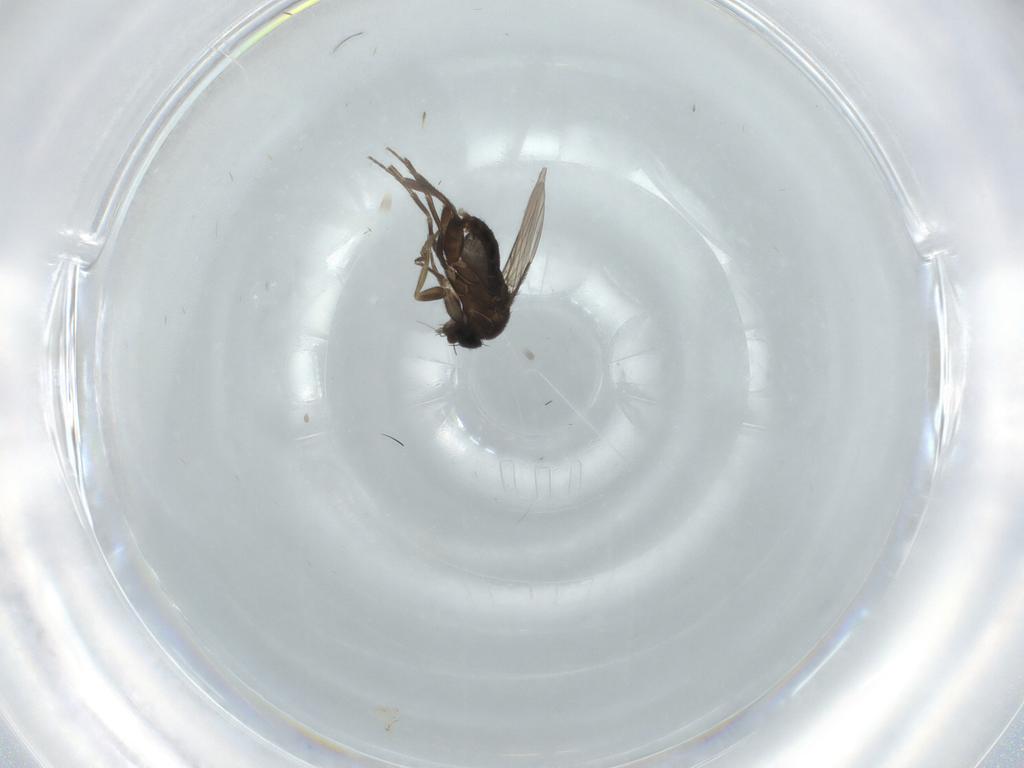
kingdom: Animalia
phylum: Arthropoda
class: Insecta
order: Diptera
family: Phoridae
